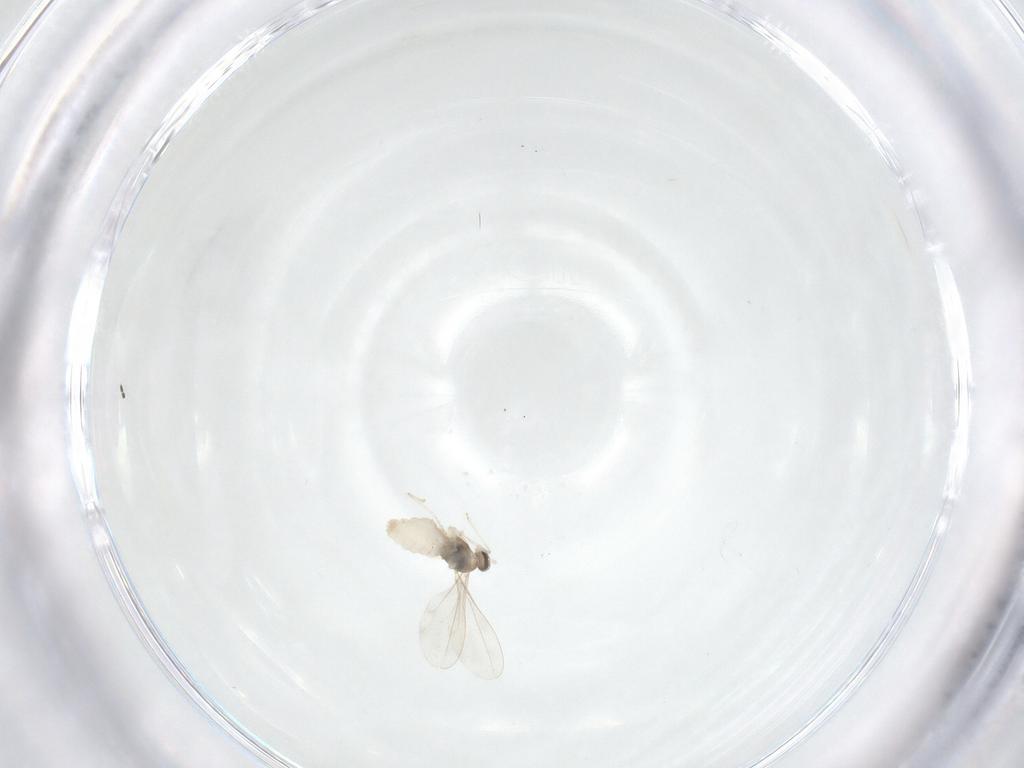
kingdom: Animalia
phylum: Arthropoda
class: Insecta
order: Diptera
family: Cecidomyiidae
